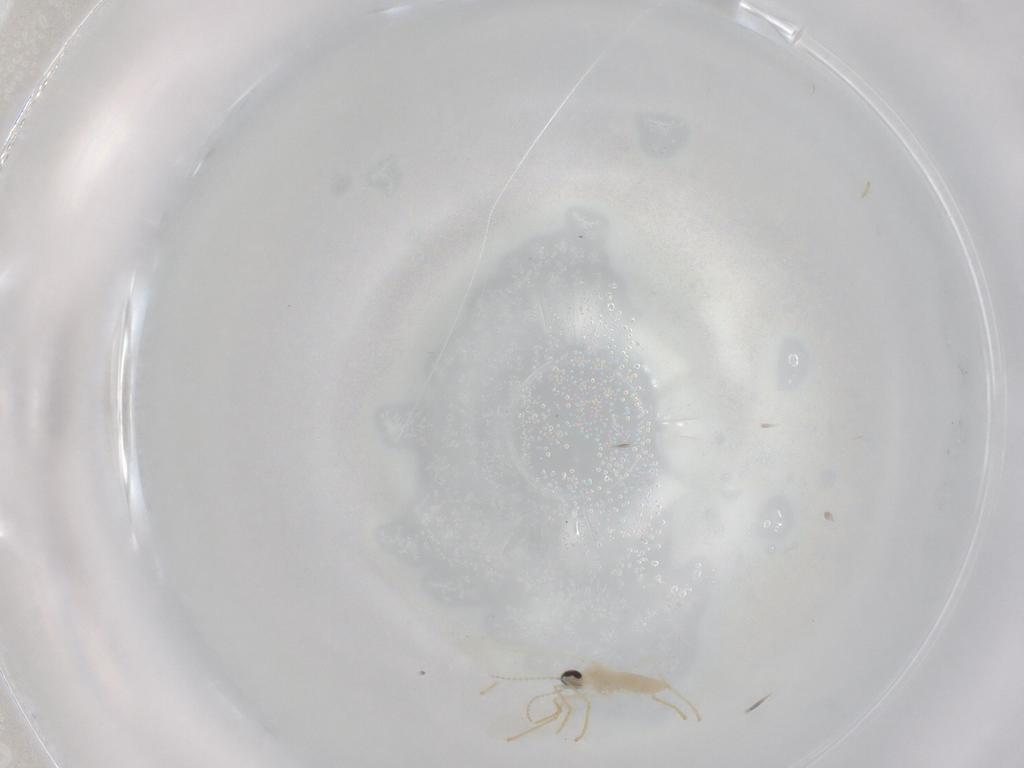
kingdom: Animalia
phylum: Arthropoda
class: Insecta
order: Diptera
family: Cecidomyiidae
